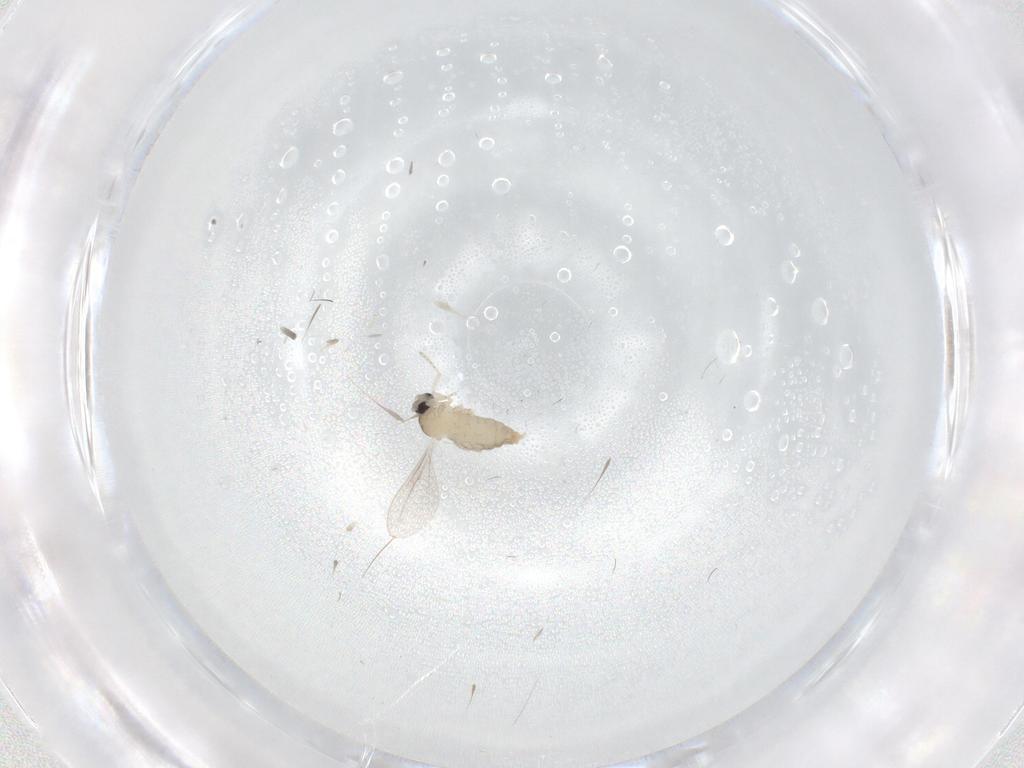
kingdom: Animalia
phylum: Arthropoda
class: Insecta
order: Diptera
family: Cecidomyiidae
